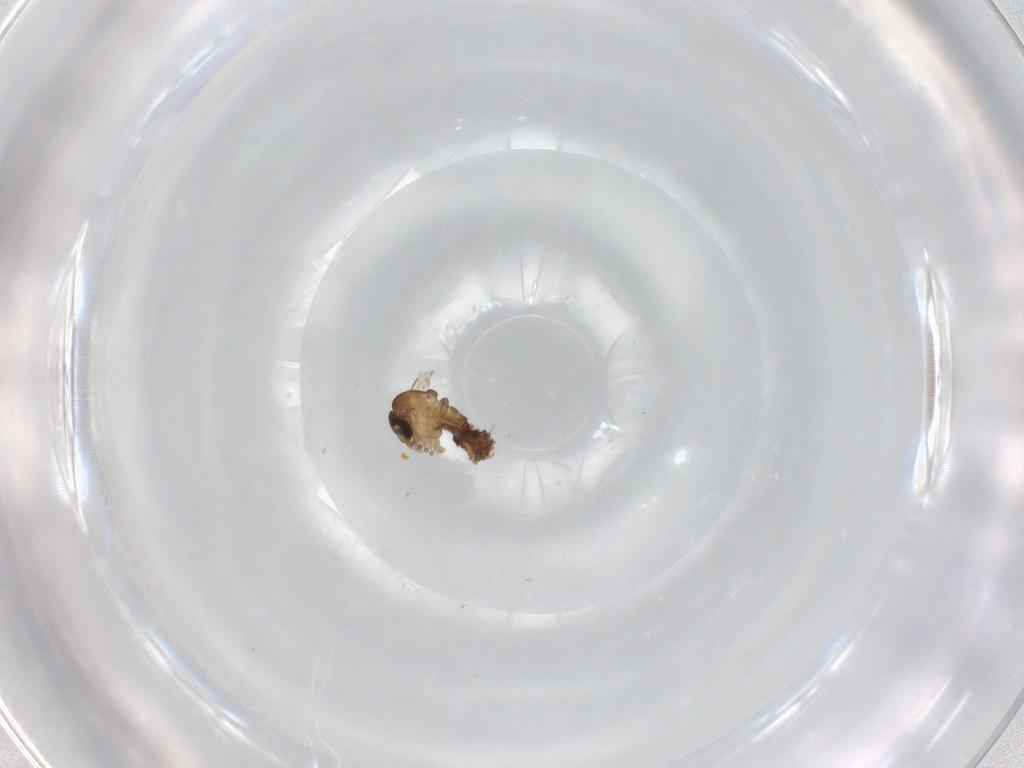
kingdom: Animalia
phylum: Arthropoda
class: Insecta
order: Diptera
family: Psychodidae
